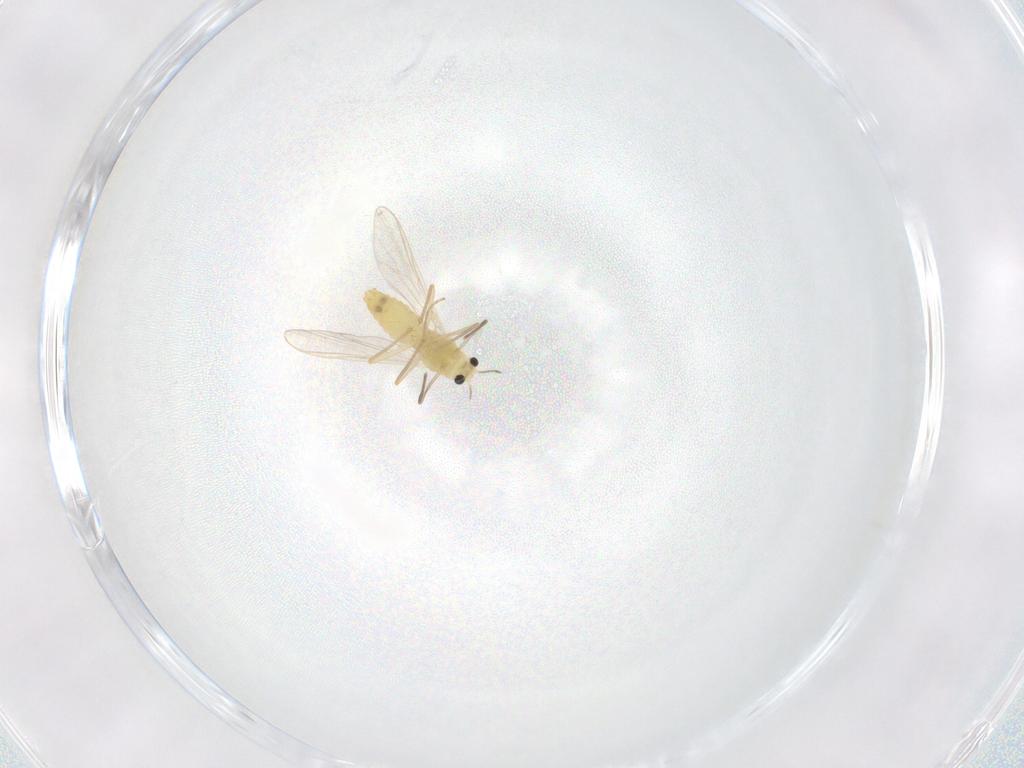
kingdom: Animalia
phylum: Arthropoda
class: Insecta
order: Diptera
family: Chironomidae
